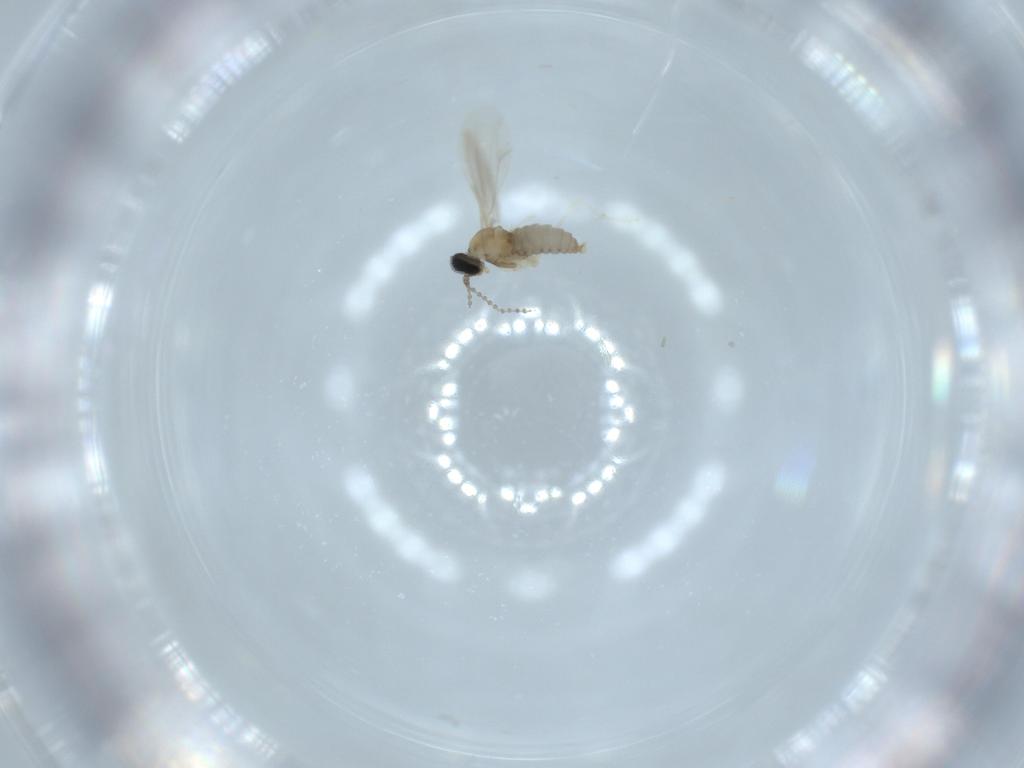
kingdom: Animalia
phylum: Arthropoda
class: Insecta
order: Diptera
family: Cecidomyiidae
